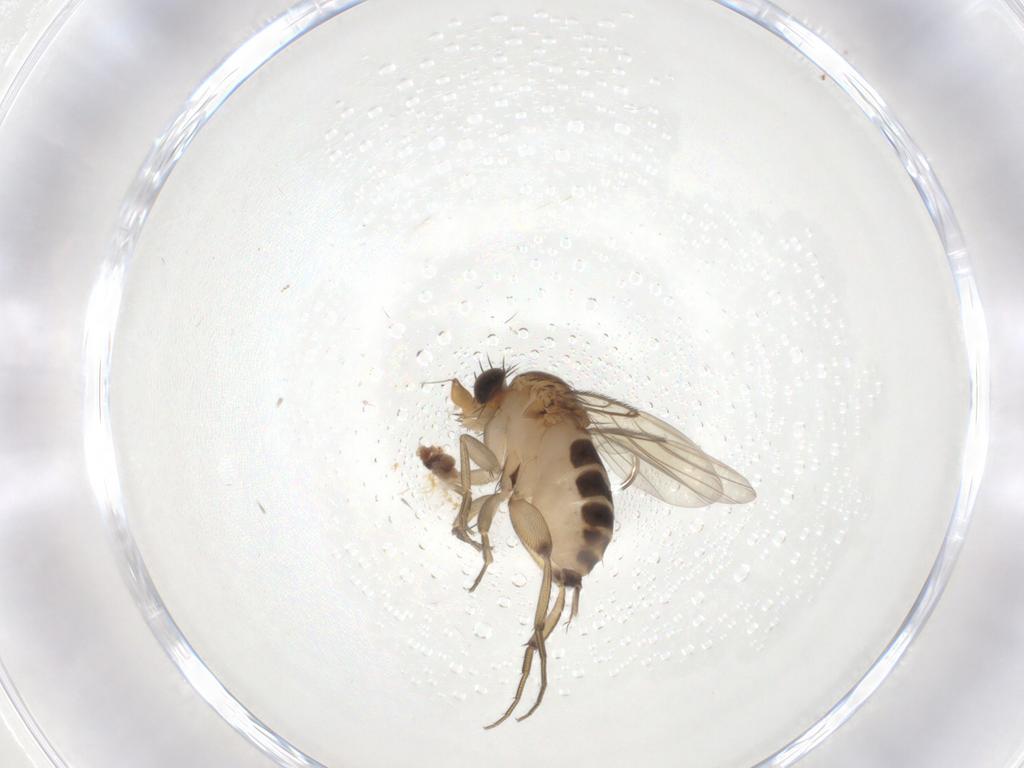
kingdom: Animalia
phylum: Arthropoda
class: Insecta
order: Diptera
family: Phoridae
